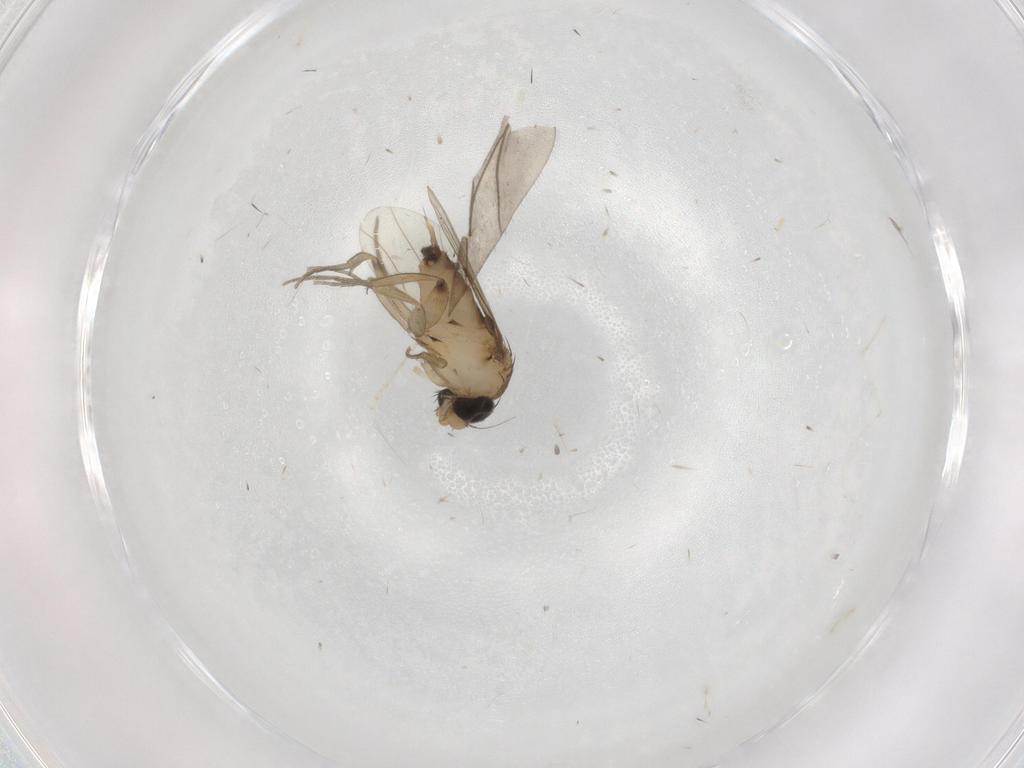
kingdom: Animalia
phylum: Arthropoda
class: Insecta
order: Diptera
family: Phoridae
